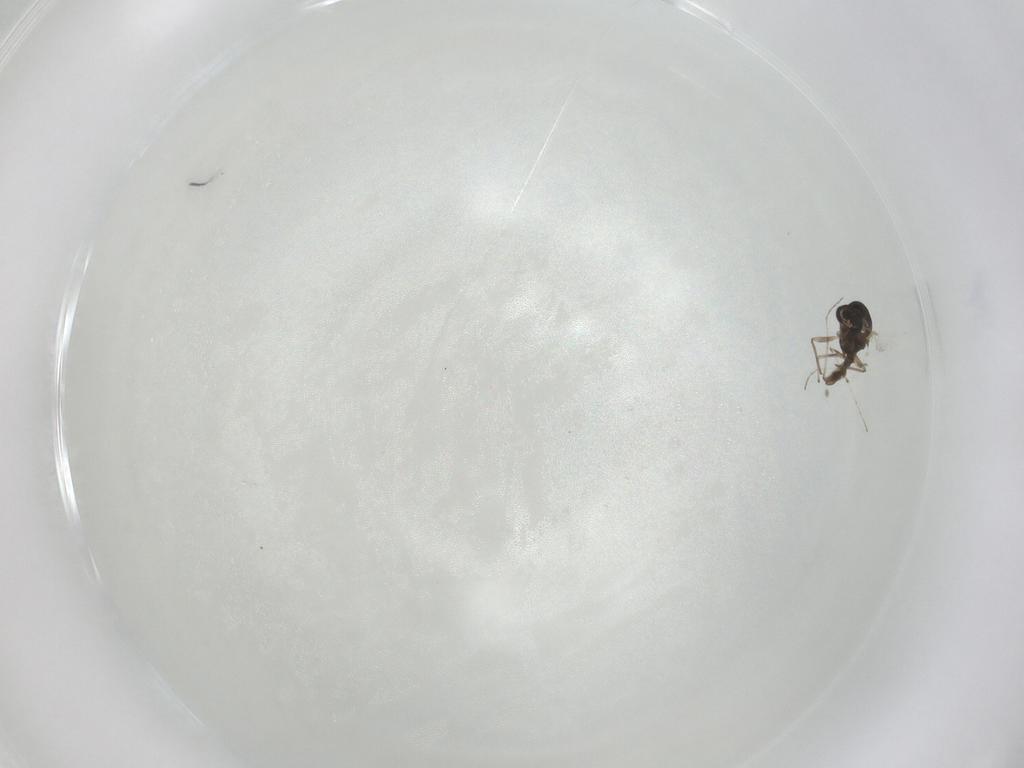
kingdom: Animalia
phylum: Arthropoda
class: Insecta
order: Diptera
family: Chironomidae
